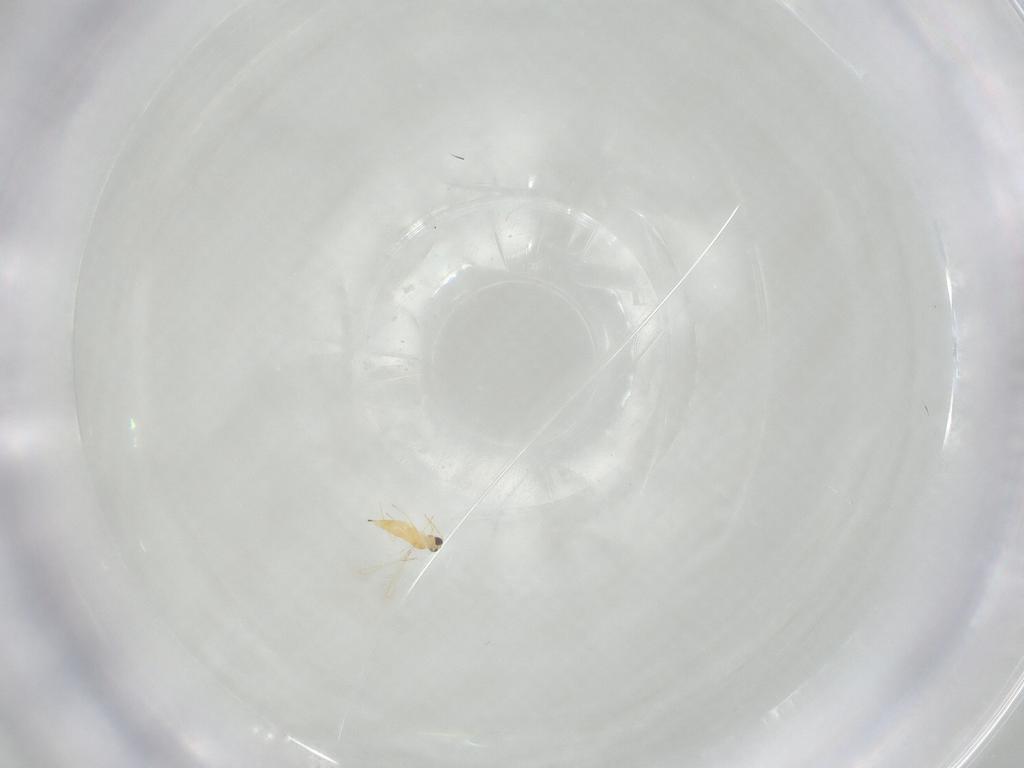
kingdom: Animalia
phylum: Arthropoda
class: Insecta
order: Hymenoptera
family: Mymaridae
